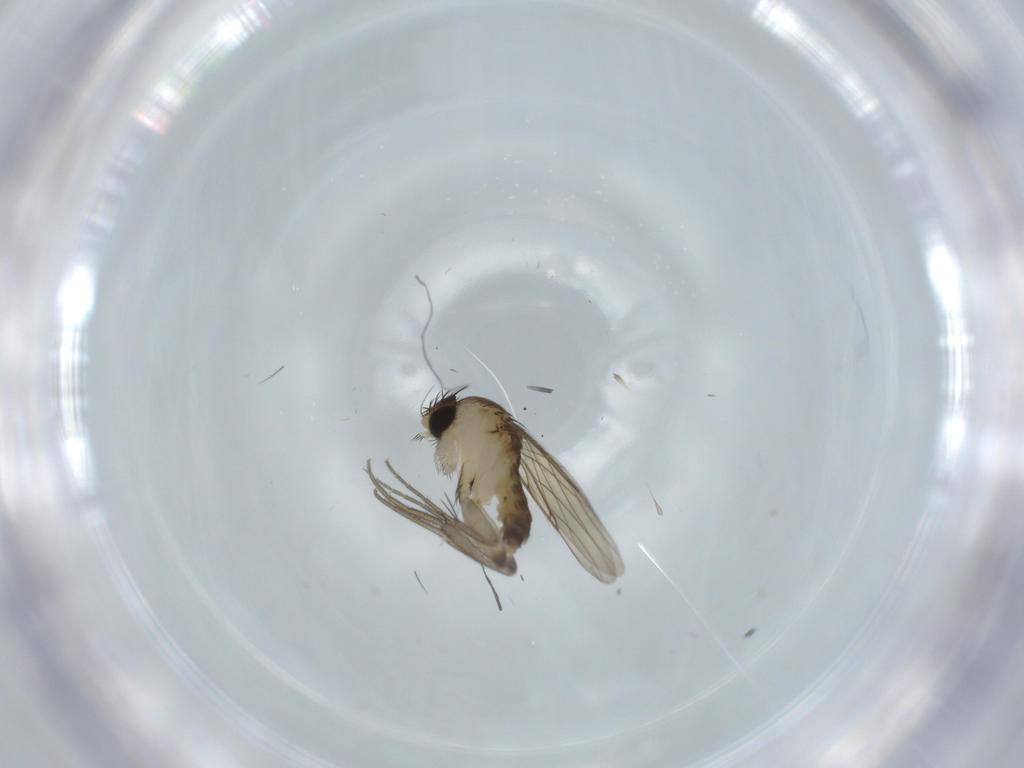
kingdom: Animalia
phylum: Arthropoda
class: Insecta
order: Diptera
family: Phoridae
